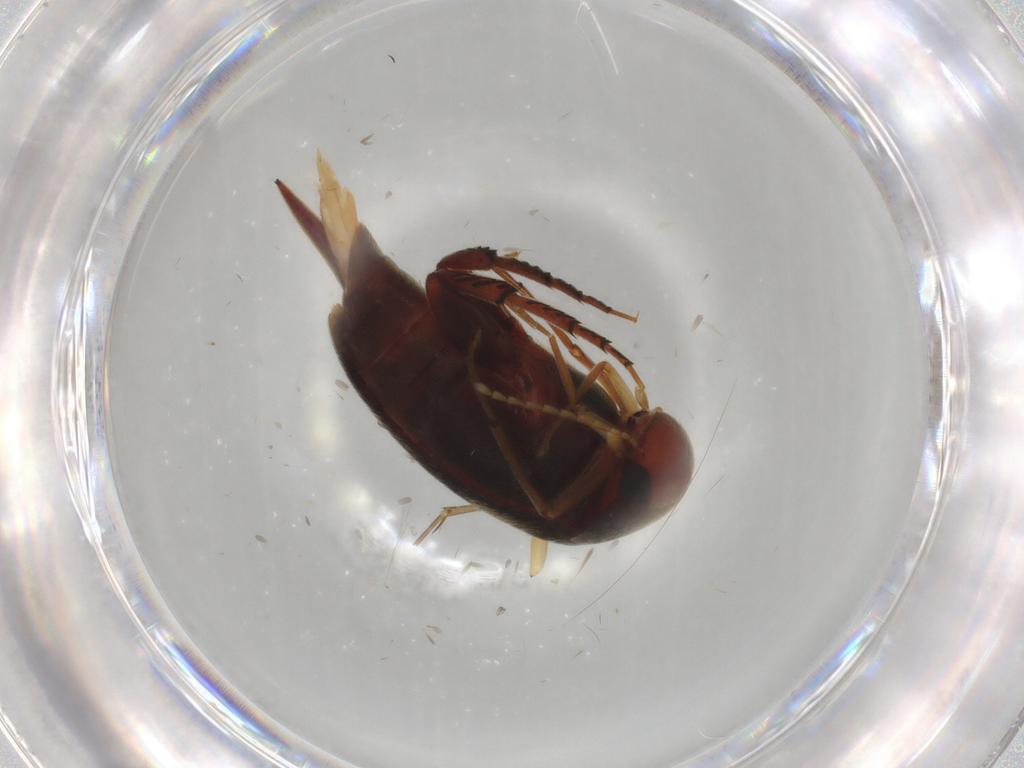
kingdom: Animalia
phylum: Arthropoda
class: Insecta
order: Coleoptera
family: Mordellidae
